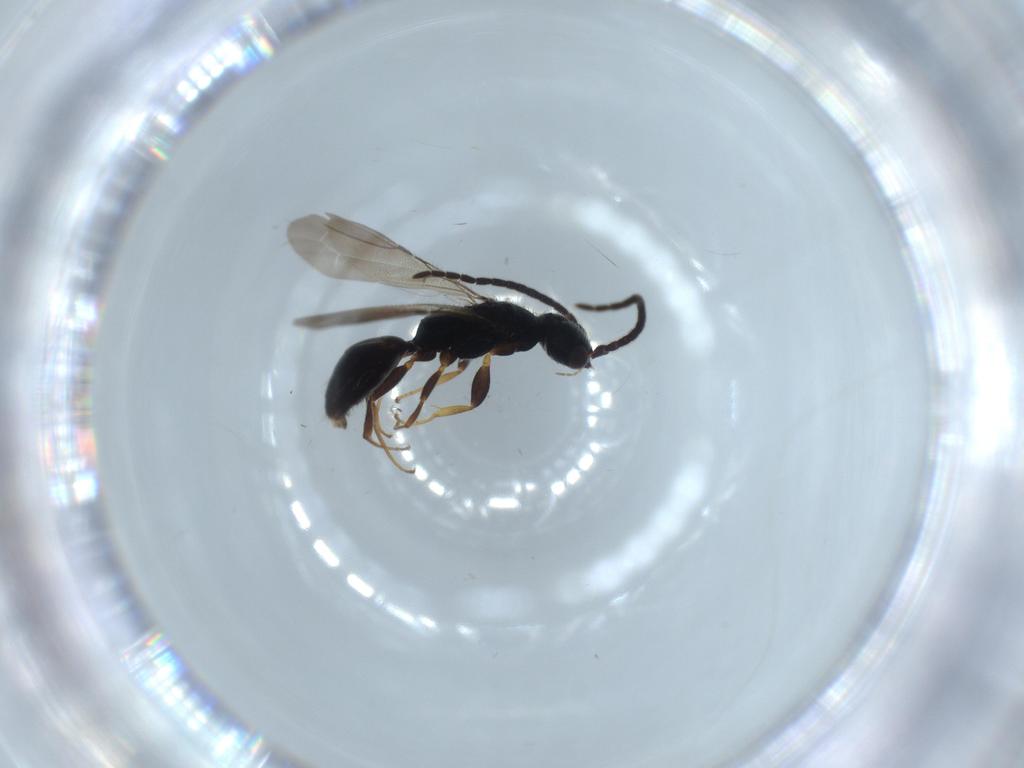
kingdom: Animalia
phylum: Arthropoda
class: Insecta
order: Hymenoptera
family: Bethylidae
